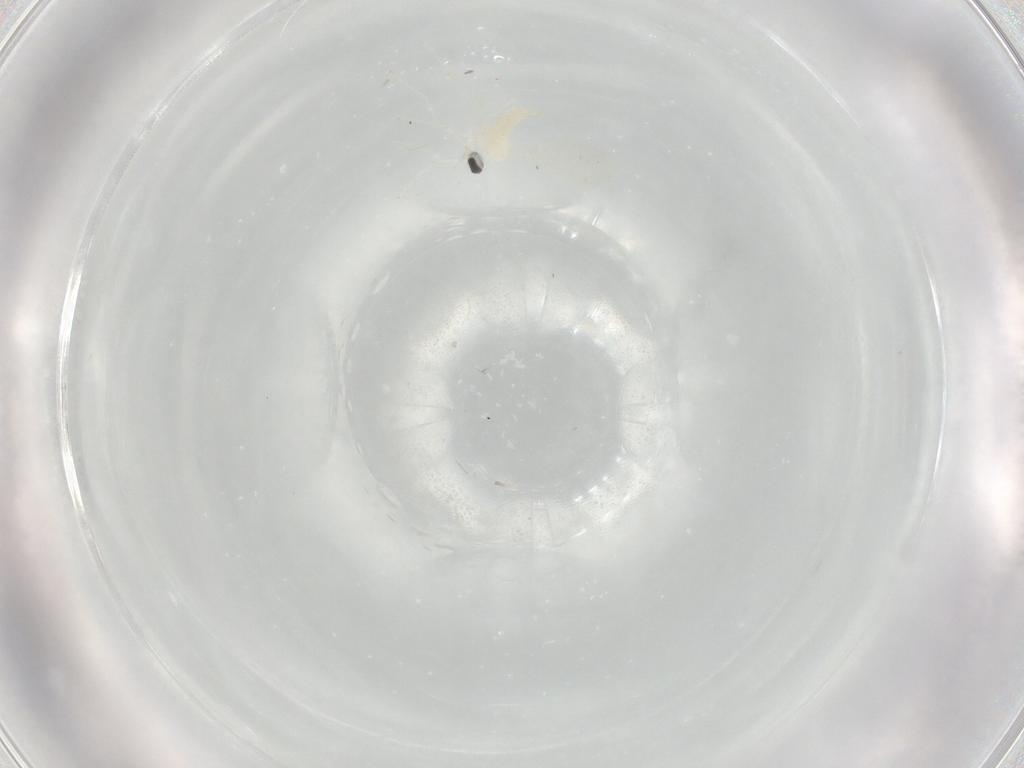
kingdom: Animalia
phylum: Arthropoda
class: Insecta
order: Diptera
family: Cecidomyiidae
